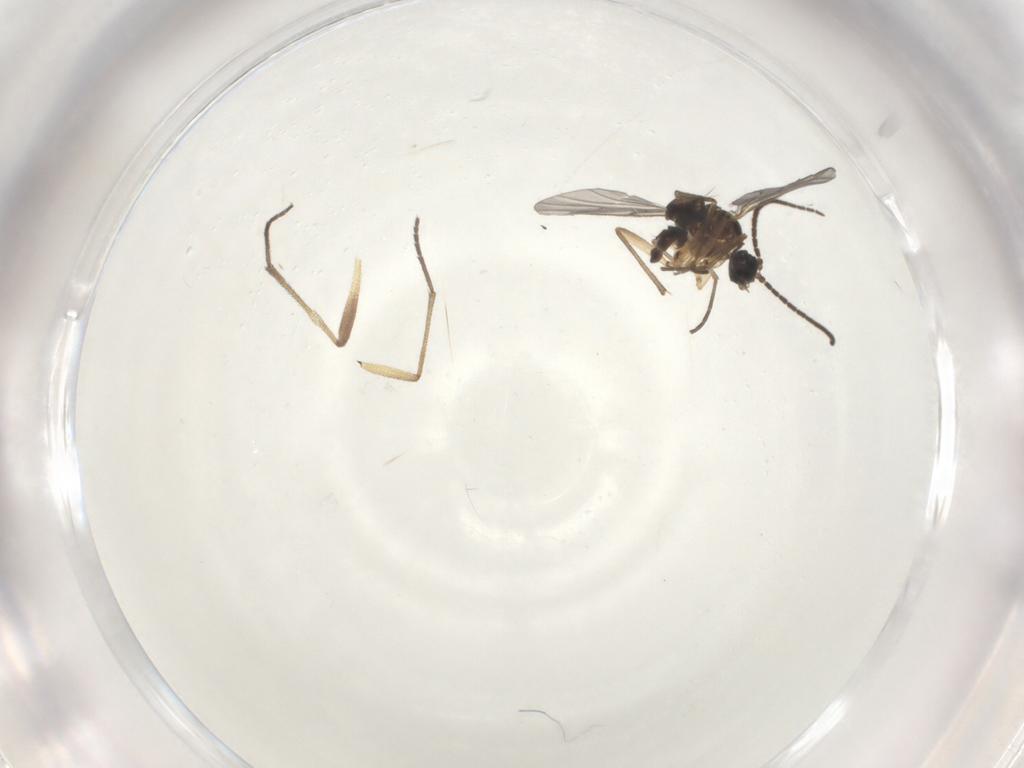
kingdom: Animalia
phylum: Arthropoda
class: Insecta
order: Diptera
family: Sciaridae
